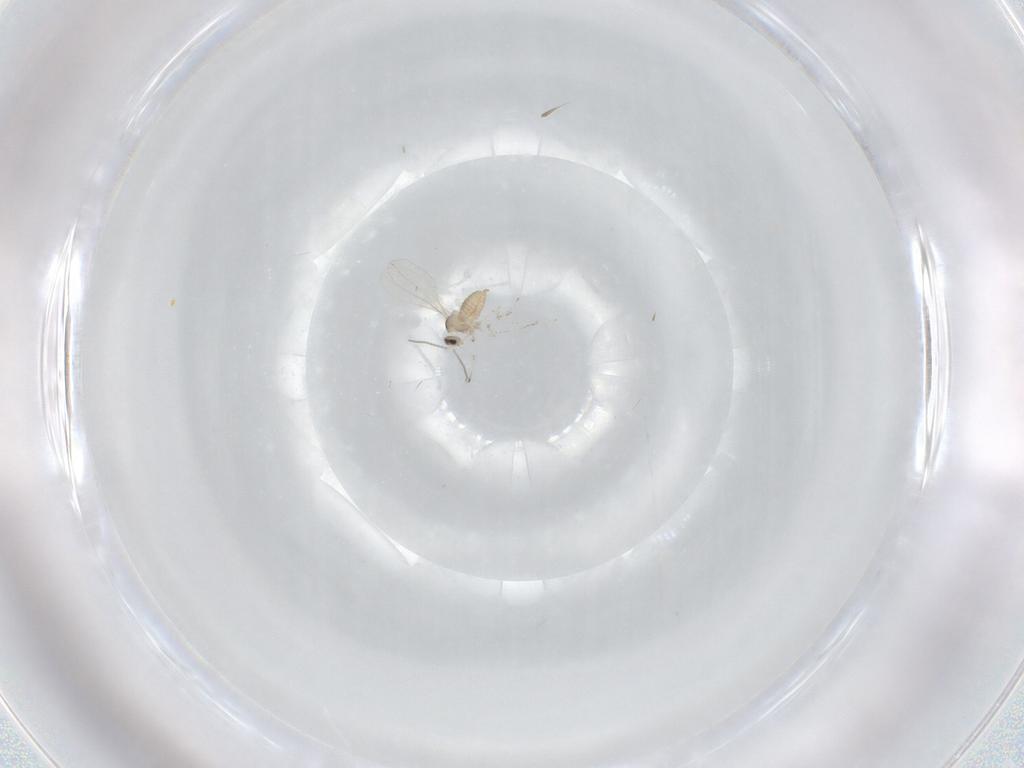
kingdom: Animalia
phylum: Arthropoda
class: Insecta
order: Diptera
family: Cecidomyiidae
